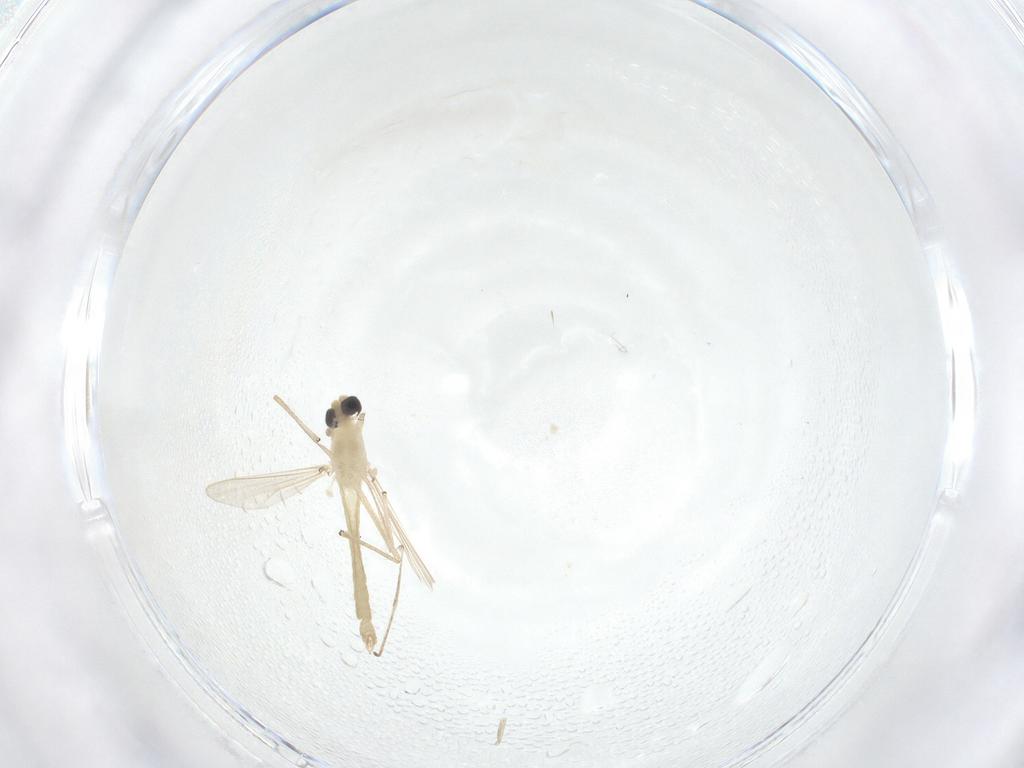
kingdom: Animalia
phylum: Arthropoda
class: Insecta
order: Diptera
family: Cecidomyiidae
